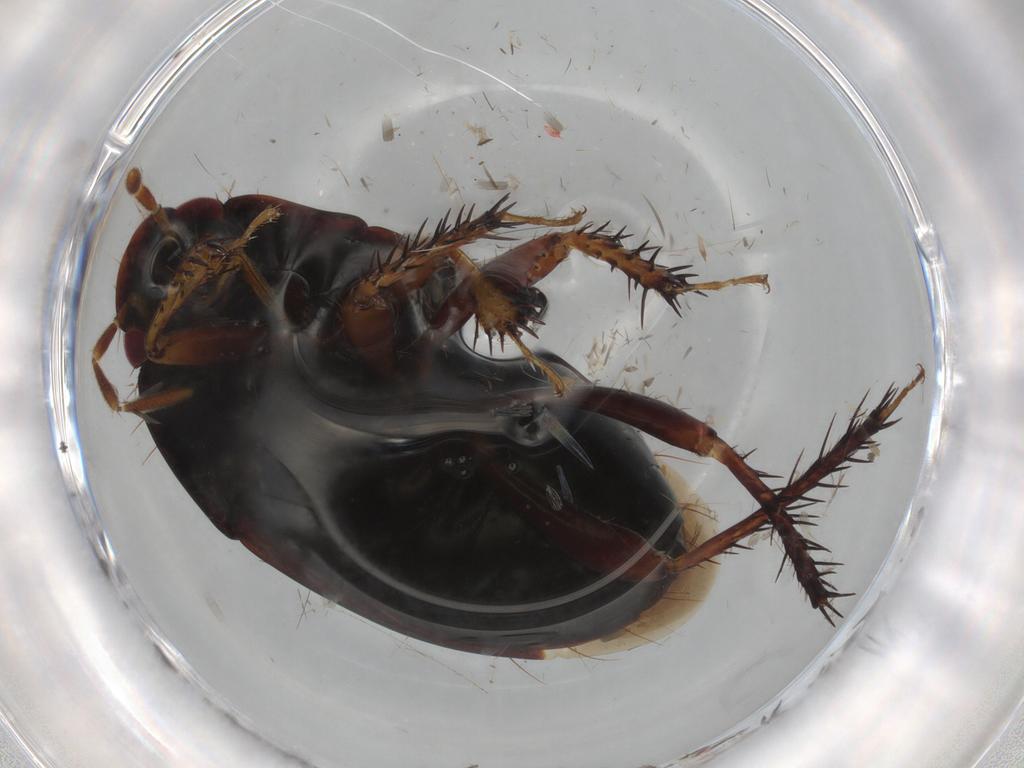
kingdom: Animalia
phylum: Arthropoda
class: Insecta
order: Hemiptera
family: Cydnidae
